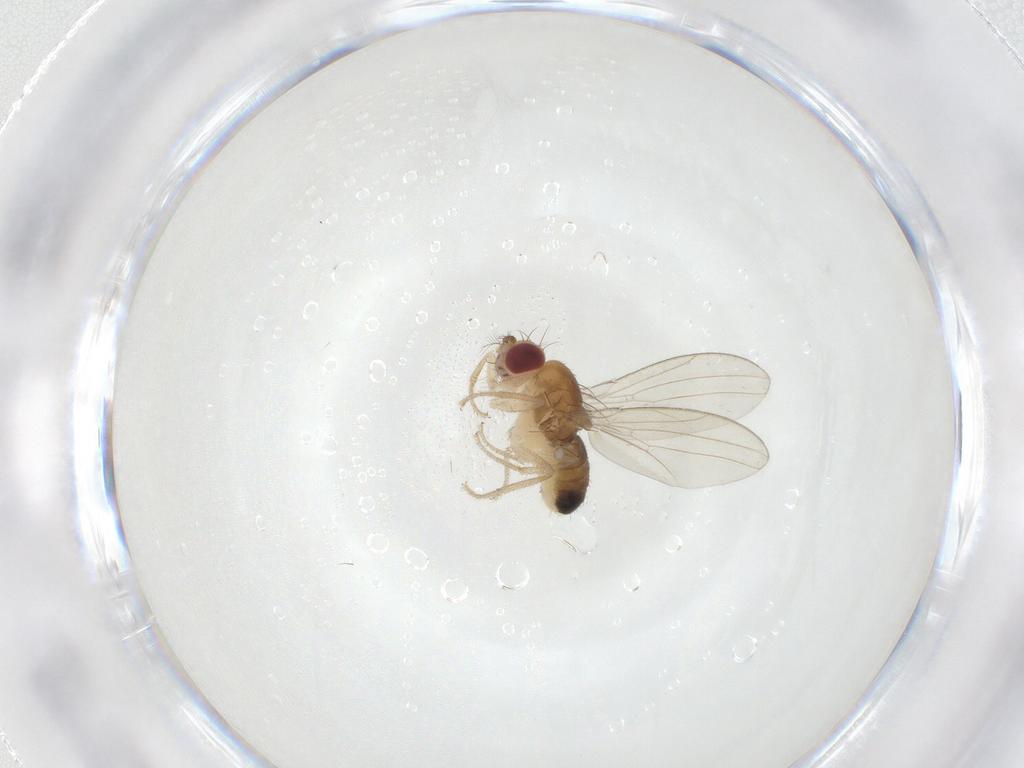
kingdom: Animalia
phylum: Arthropoda
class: Insecta
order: Diptera
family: Drosophilidae
